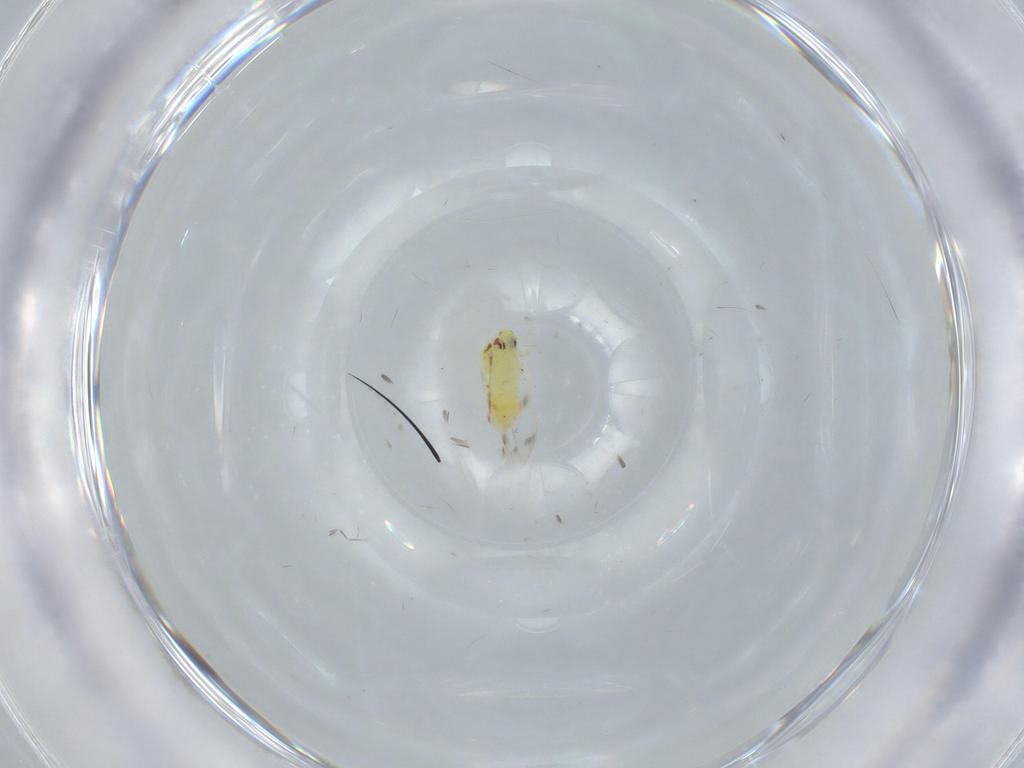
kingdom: Animalia
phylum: Arthropoda
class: Insecta
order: Hemiptera
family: Aleyrodidae
